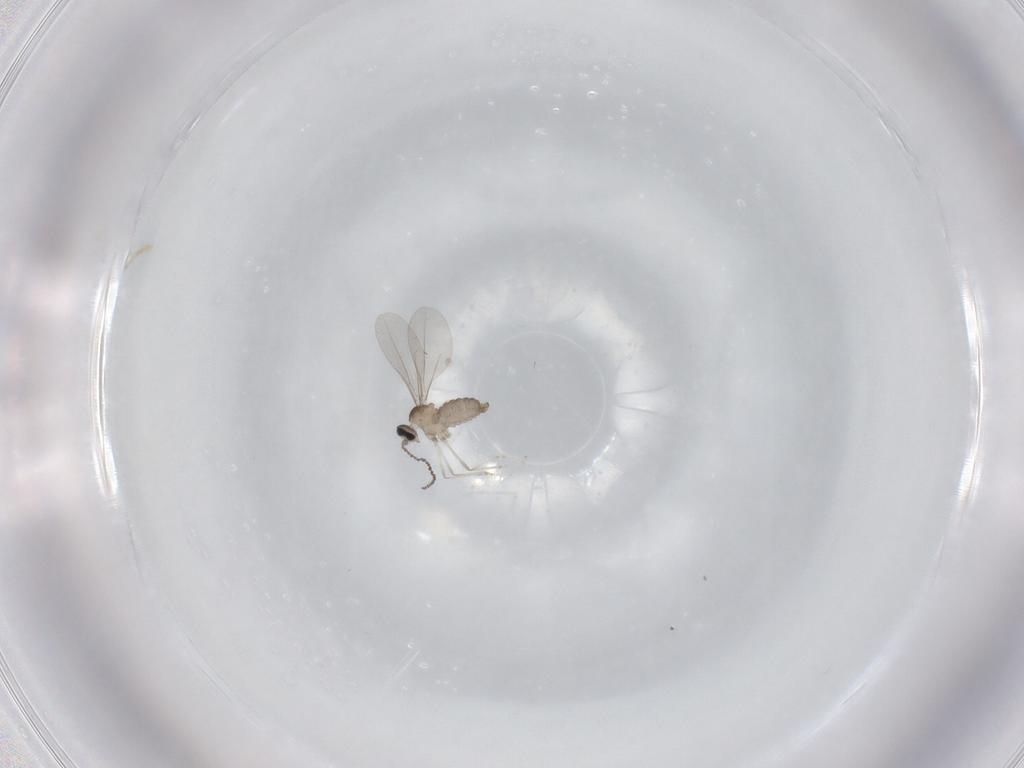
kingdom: Animalia
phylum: Arthropoda
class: Insecta
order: Diptera
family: Cecidomyiidae
